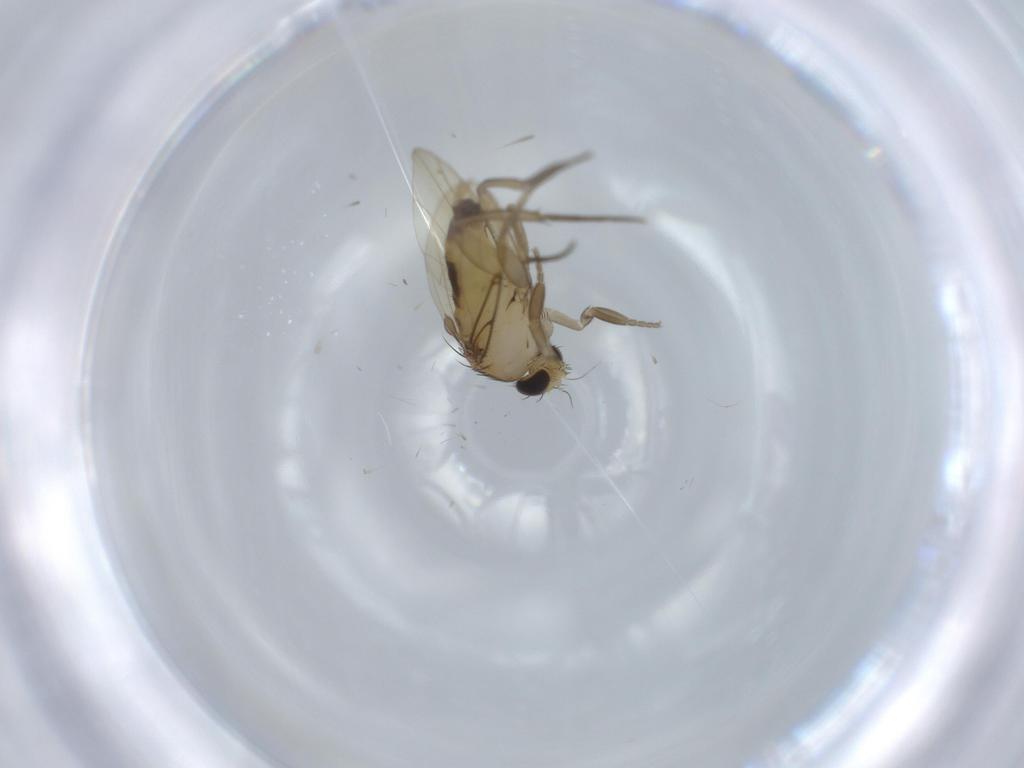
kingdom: Animalia
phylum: Arthropoda
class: Insecta
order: Diptera
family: Phoridae
